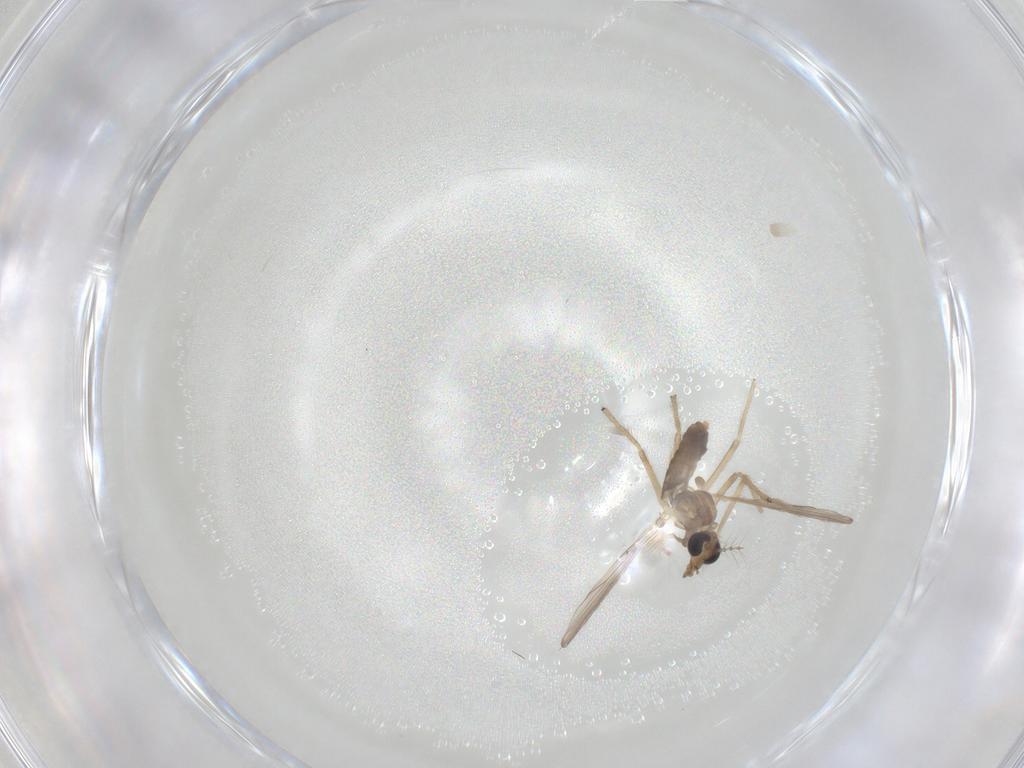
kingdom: Animalia
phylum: Arthropoda
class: Insecta
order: Diptera
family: Chironomidae
